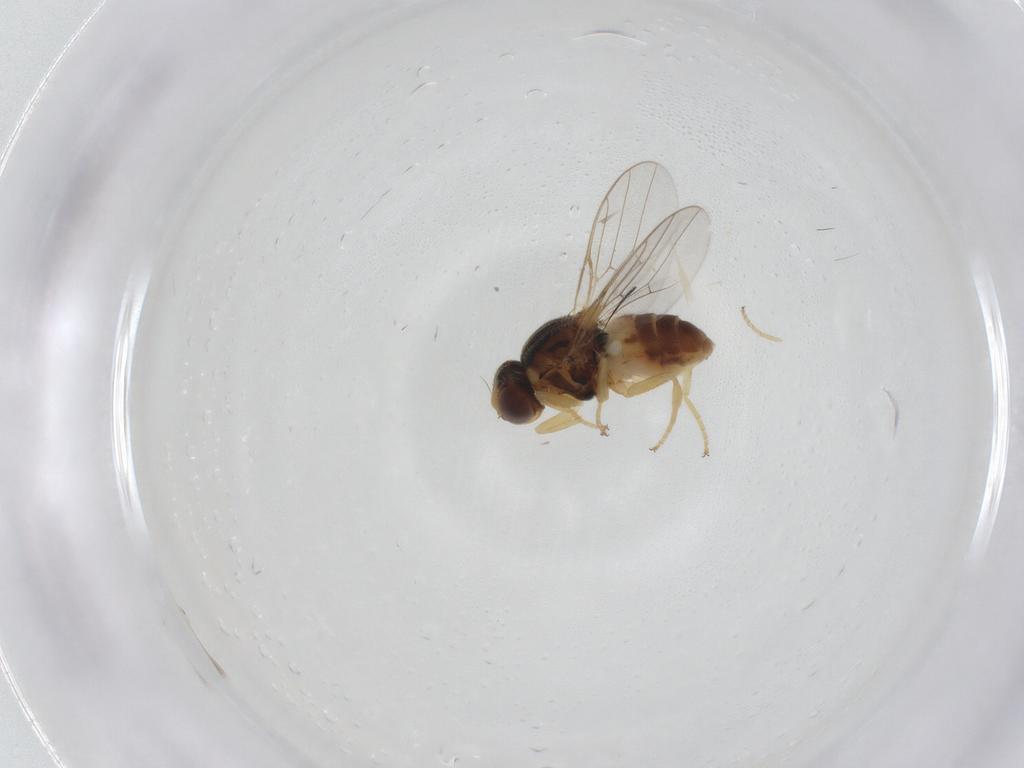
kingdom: Animalia
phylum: Arthropoda
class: Insecta
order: Diptera
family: Chloropidae
